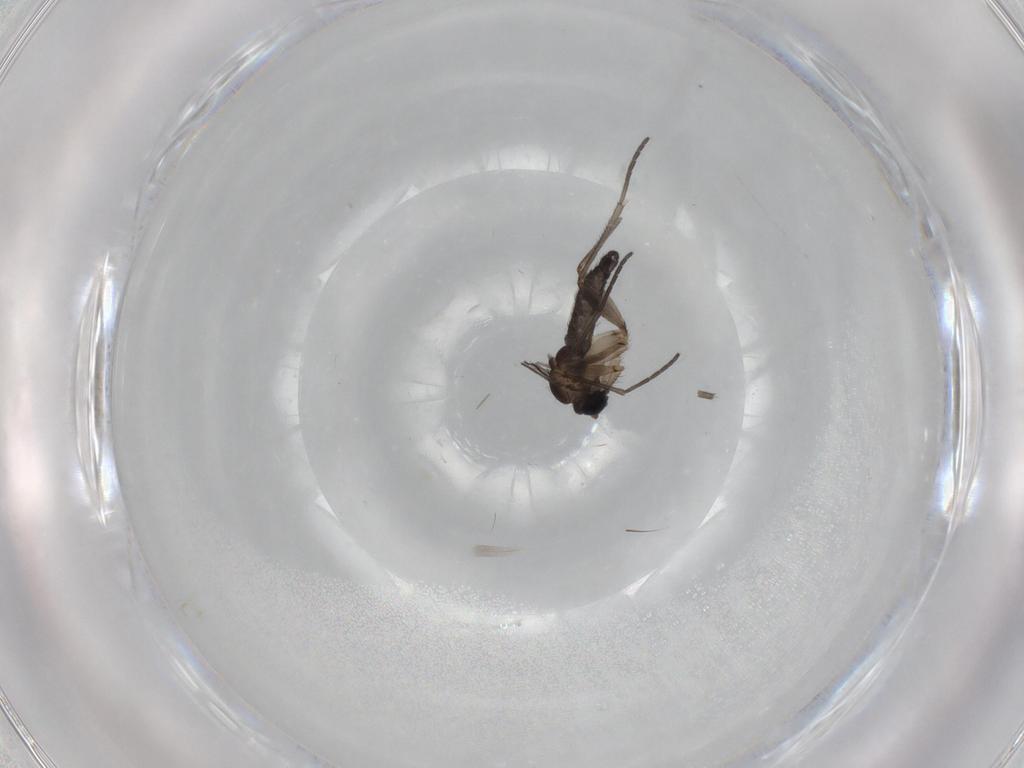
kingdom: Animalia
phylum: Arthropoda
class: Insecta
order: Diptera
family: Sciaridae
